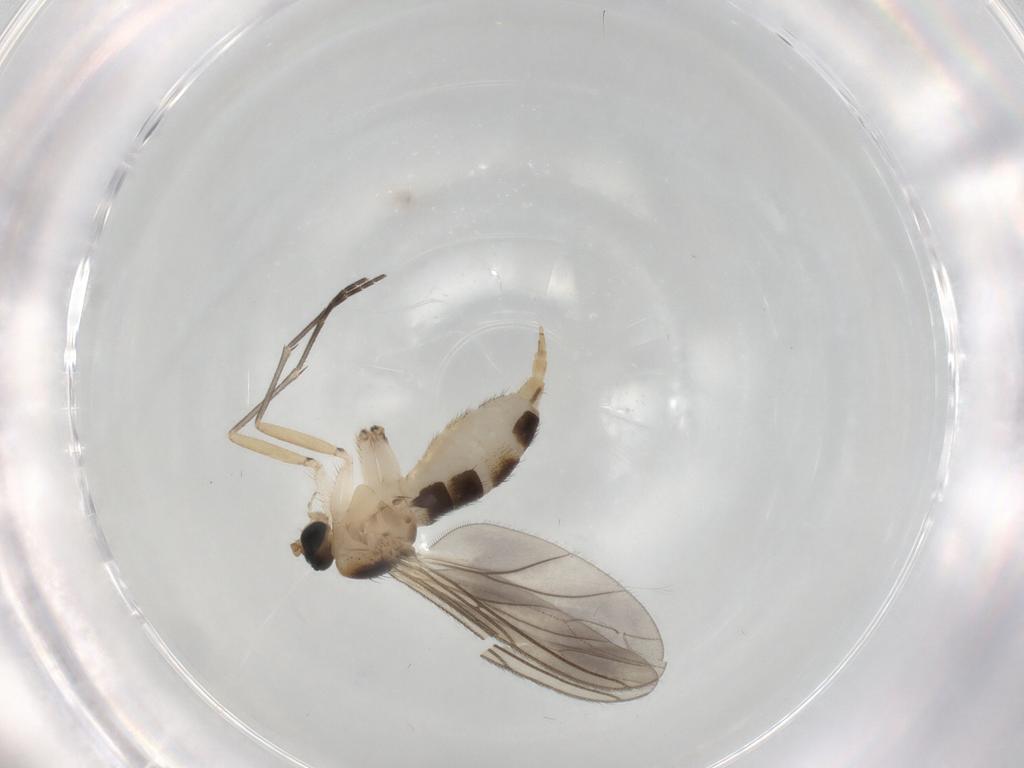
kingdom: Animalia
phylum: Arthropoda
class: Insecta
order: Diptera
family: Sciaridae
